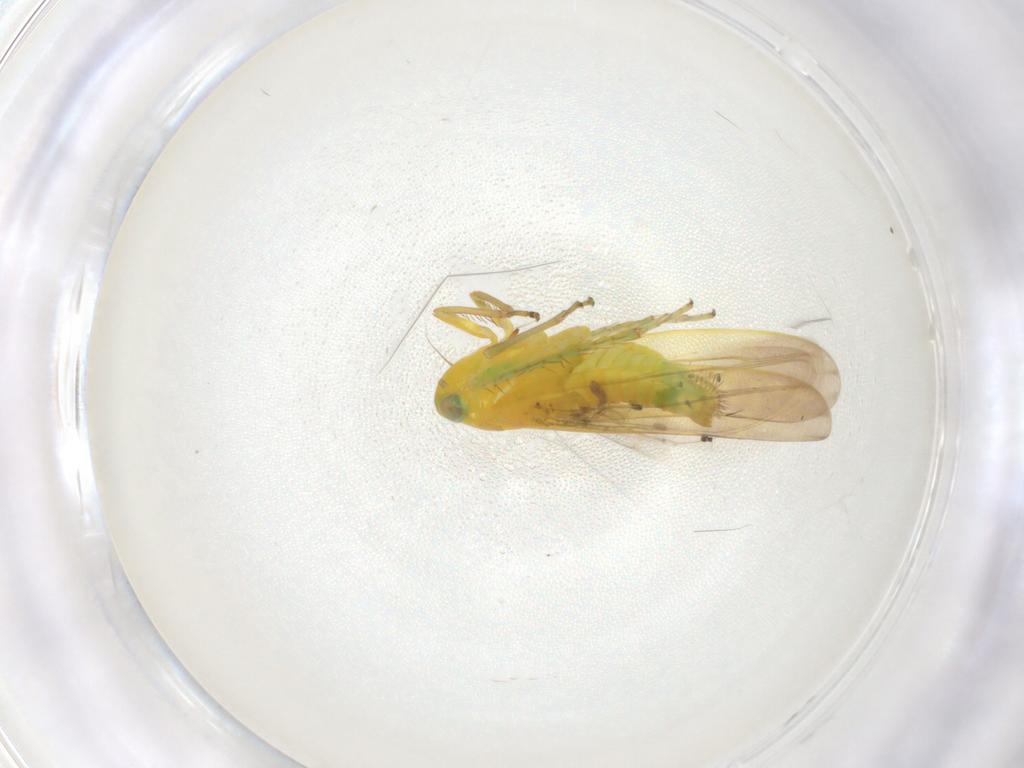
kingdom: Animalia
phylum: Arthropoda
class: Insecta
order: Hemiptera
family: Cicadellidae
